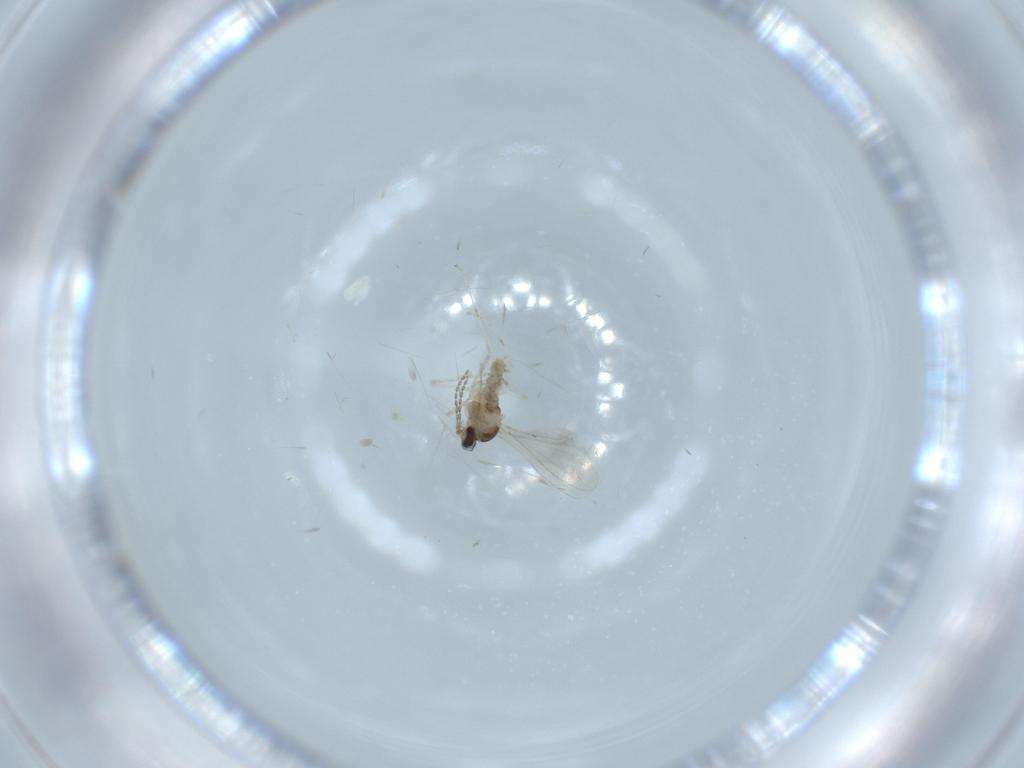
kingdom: Animalia
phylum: Arthropoda
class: Insecta
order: Diptera
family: Cecidomyiidae
